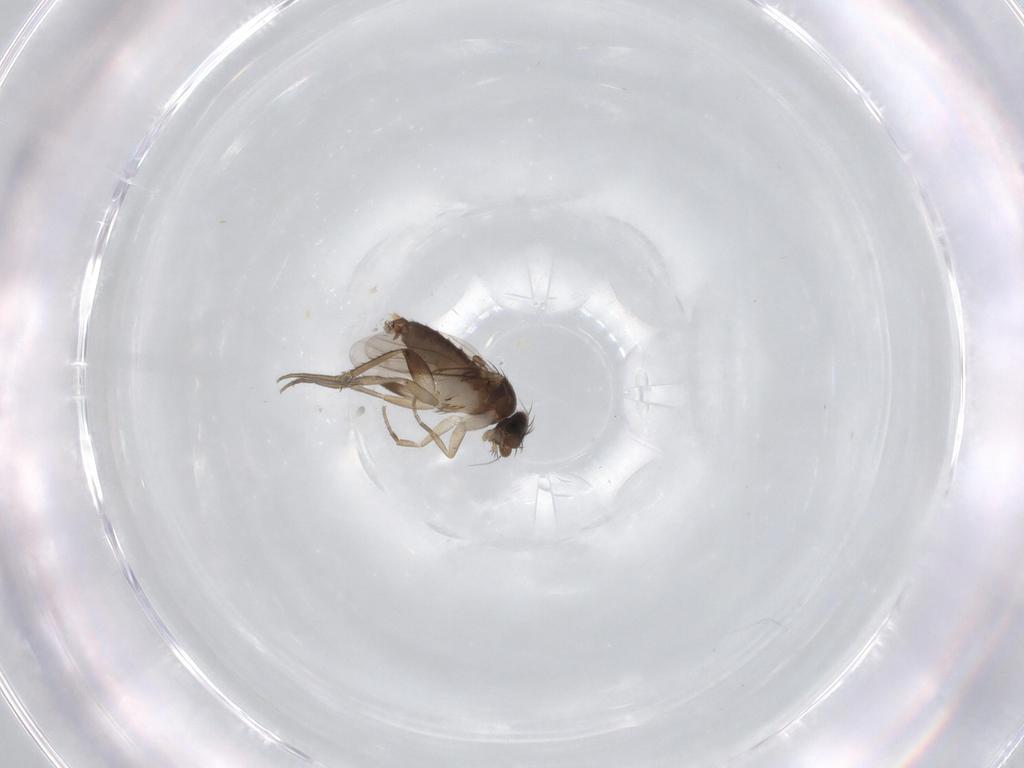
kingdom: Animalia
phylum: Arthropoda
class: Insecta
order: Diptera
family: Phoridae
